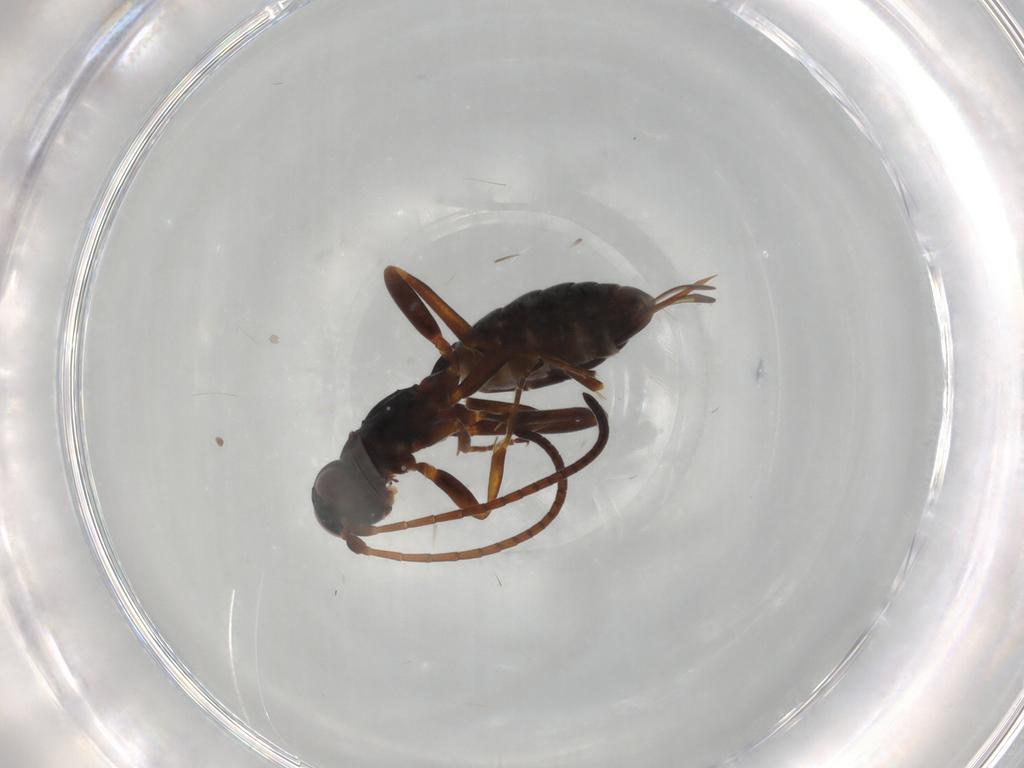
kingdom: Animalia
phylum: Arthropoda
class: Insecta
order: Hymenoptera
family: Ichneumonidae
